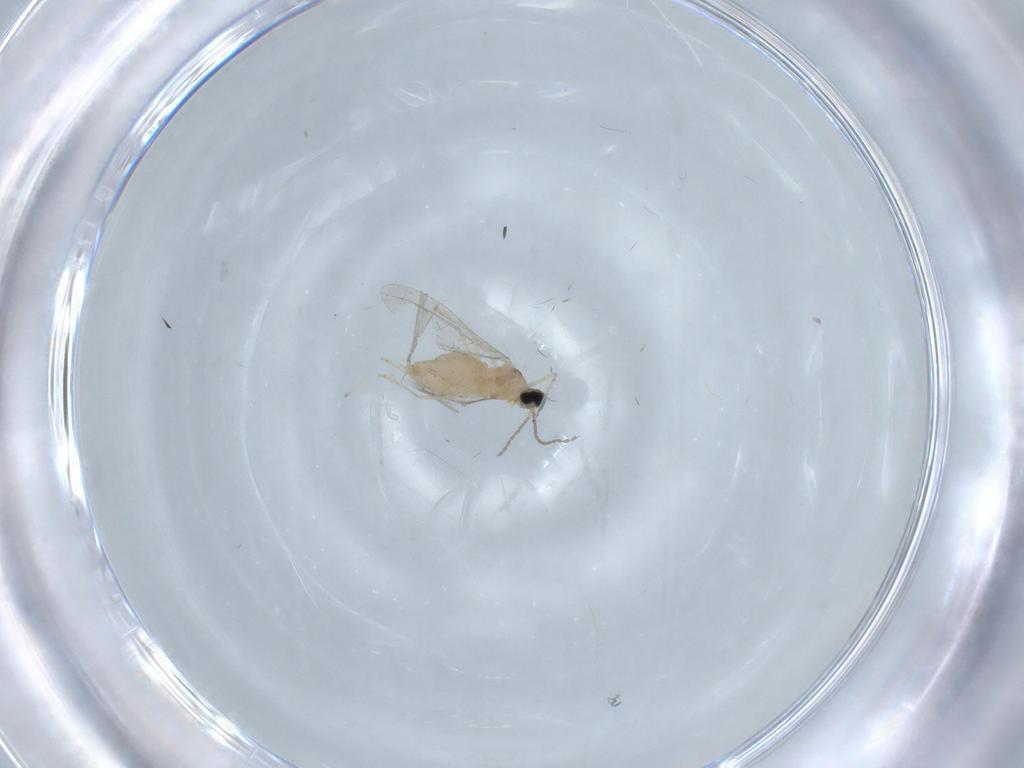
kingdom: Animalia
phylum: Arthropoda
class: Insecta
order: Diptera
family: Cecidomyiidae
